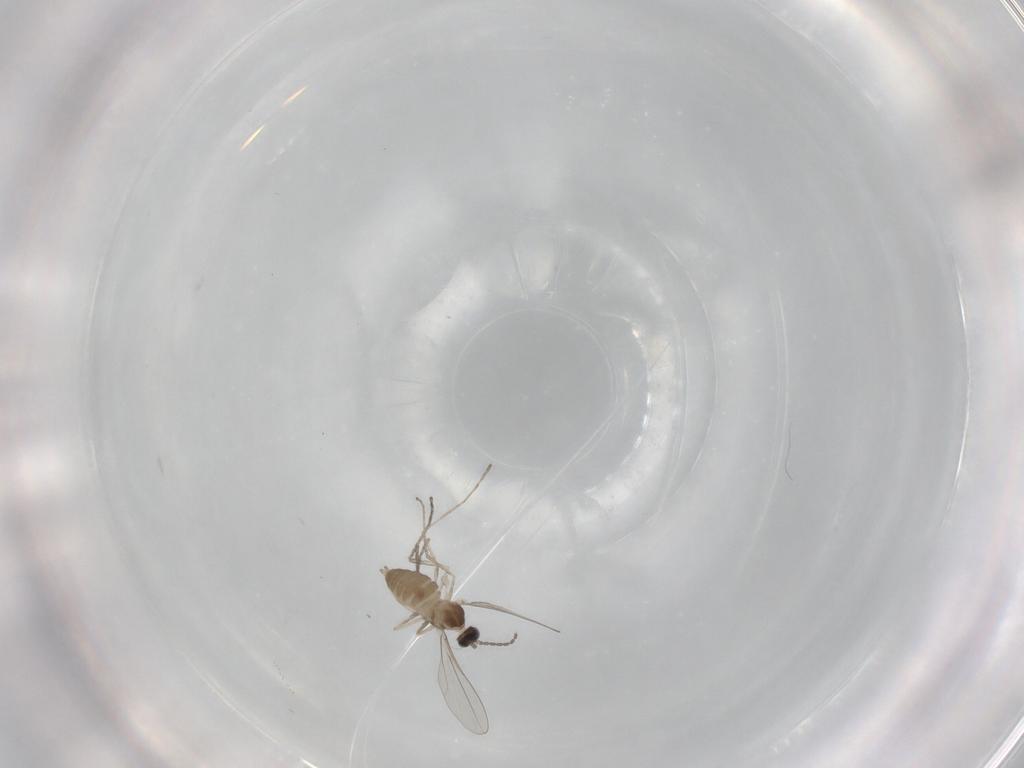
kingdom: Animalia
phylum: Arthropoda
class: Insecta
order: Diptera
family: Cecidomyiidae
